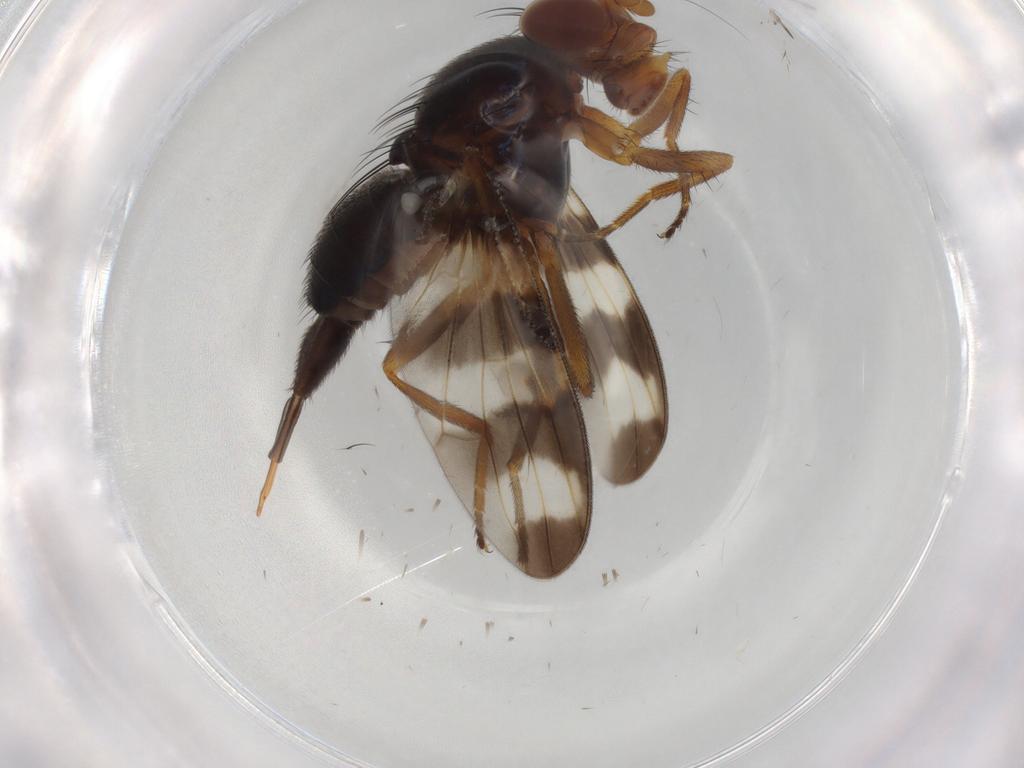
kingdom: Animalia
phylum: Arthropoda
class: Insecta
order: Diptera
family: Ulidiidae
